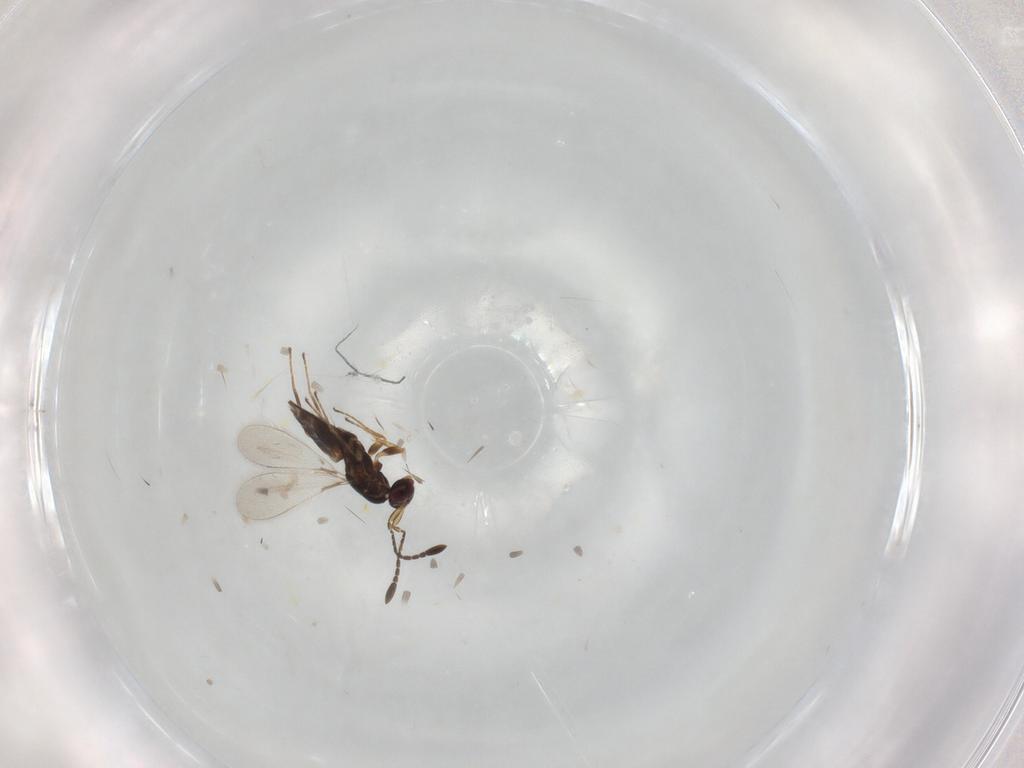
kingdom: Animalia
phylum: Arthropoda
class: Insecta
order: Hymenoptera
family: Mymaridae
